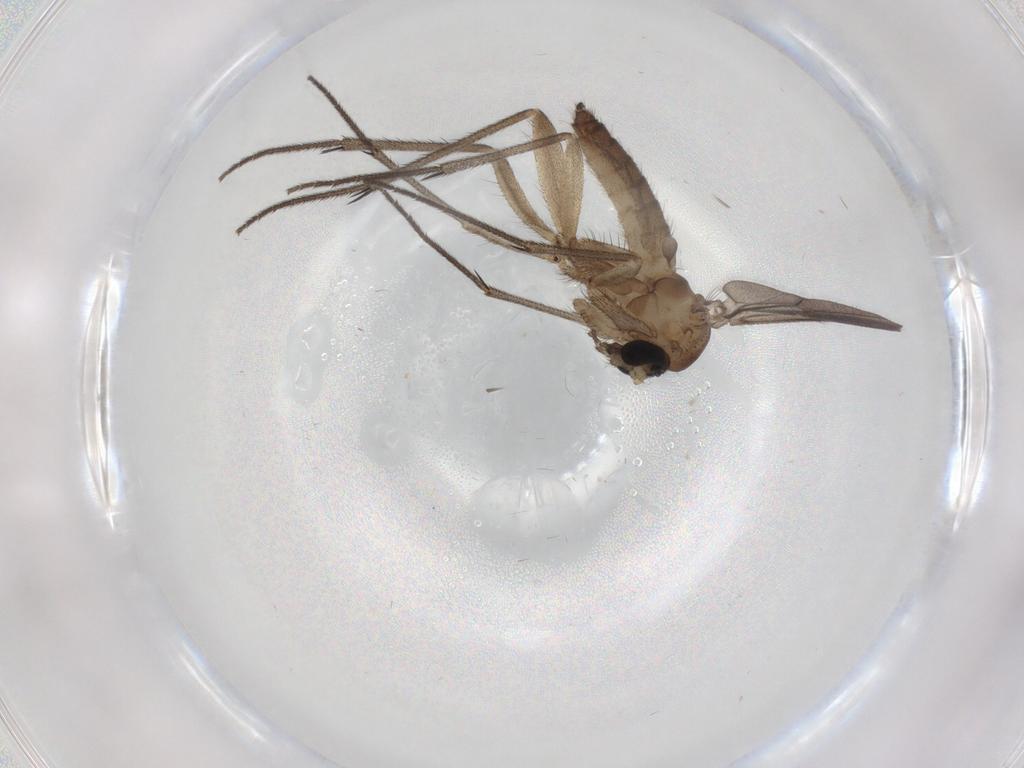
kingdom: Animalia
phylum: Arthropoda
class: Insecta
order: Diptera
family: Cecidomyiidae
